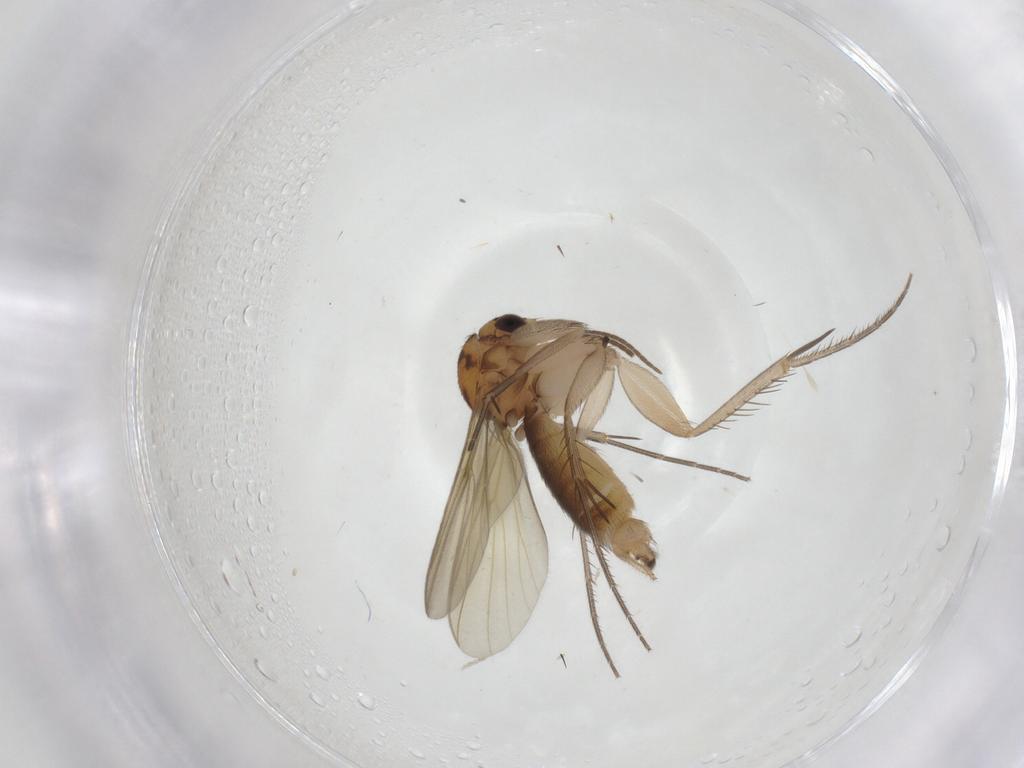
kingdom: Animalia
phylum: Arthropoda
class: Insecta
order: Diptera
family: Mycetophilidae
